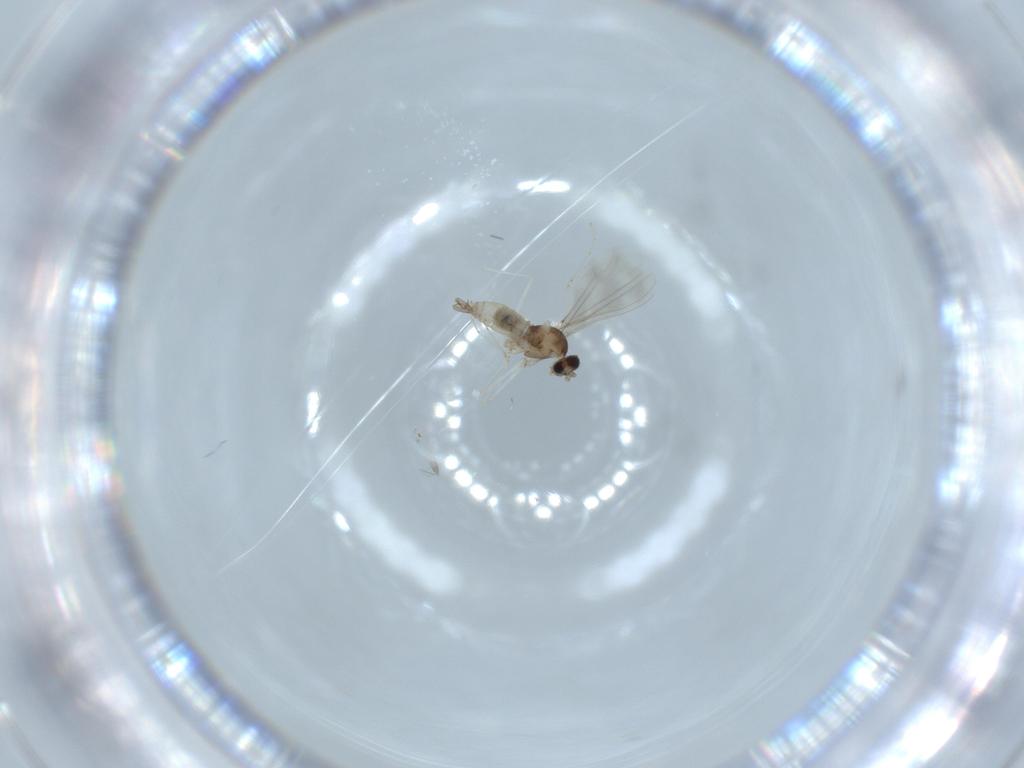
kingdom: Animalia
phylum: Arthropoda
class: Insecta
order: Diptera
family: Cecidomyiidae
